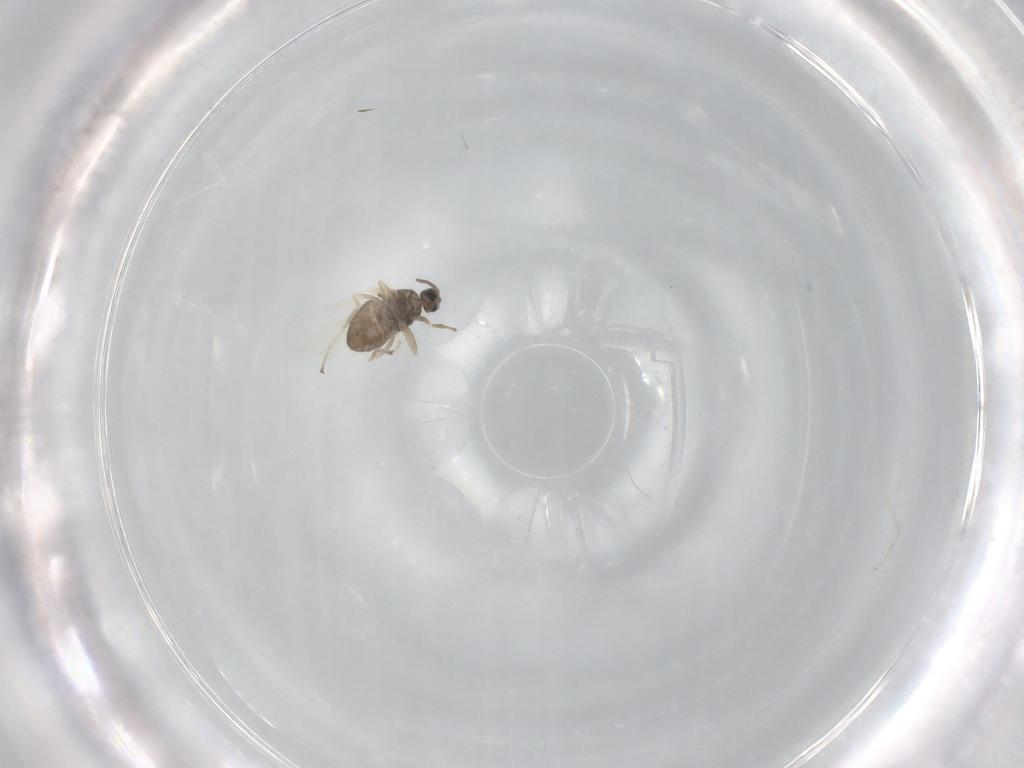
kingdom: Animalia
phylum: Arthropoda
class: Insecta
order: Diptera
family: Cecidomyiidae
